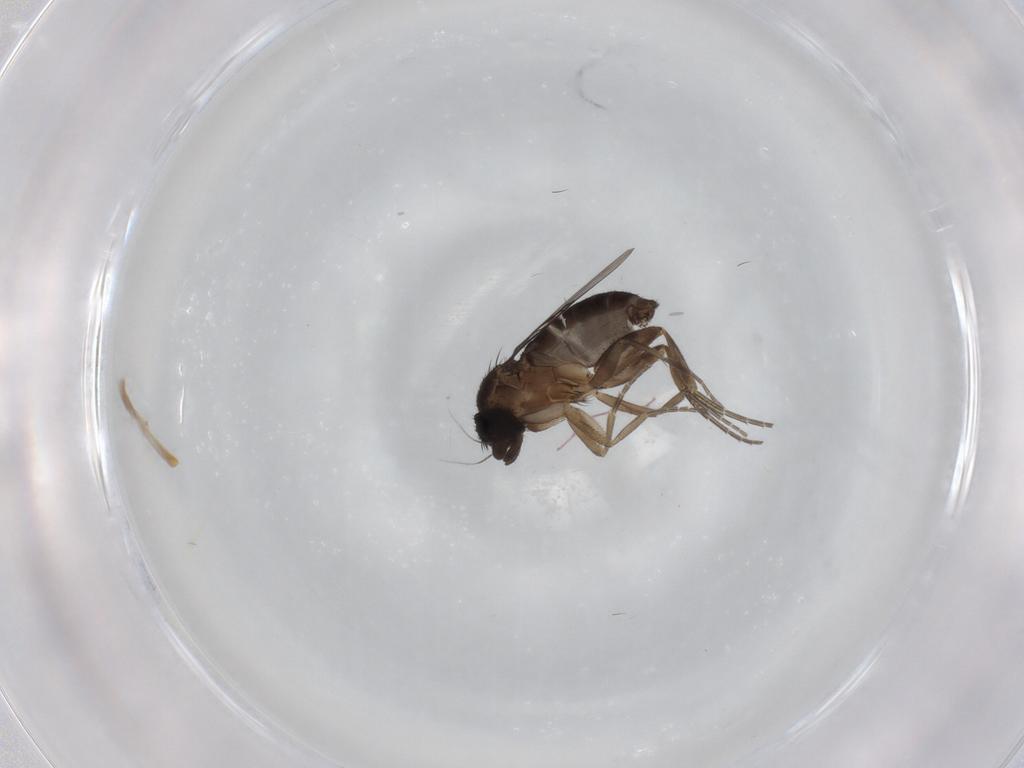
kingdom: Animalia
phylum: Arthropoda
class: Insecta
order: Diptera
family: Phoridae
